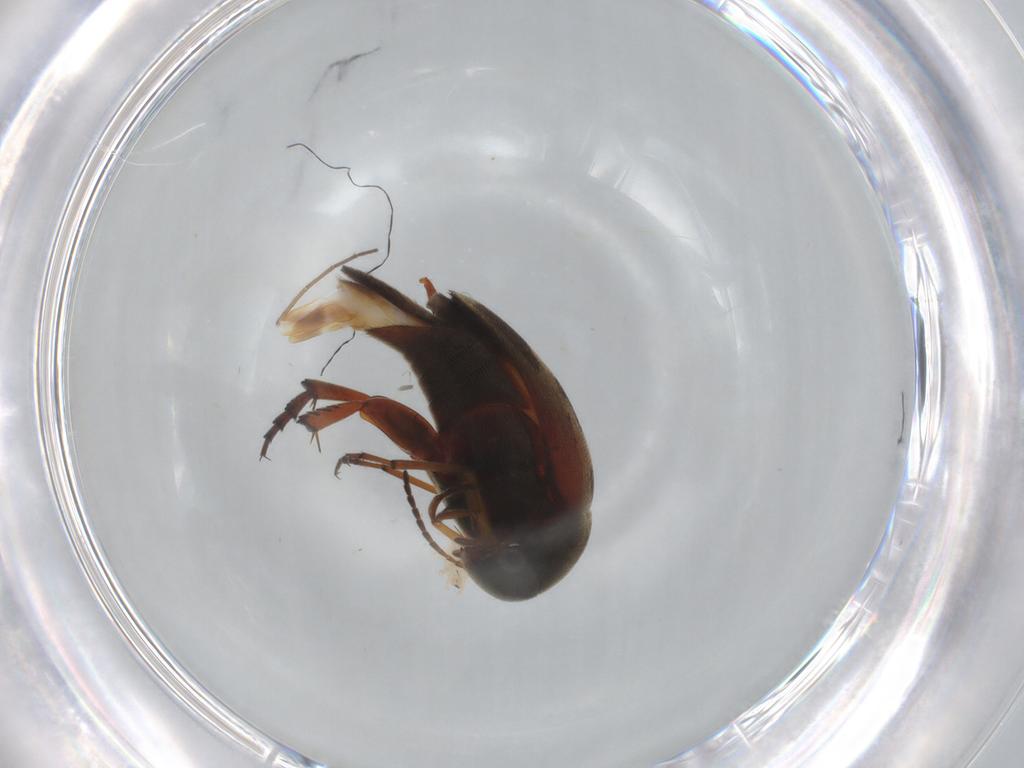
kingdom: Animalia
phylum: Arthropoda
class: Insecta
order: Coleoptera
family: Mordellidae
